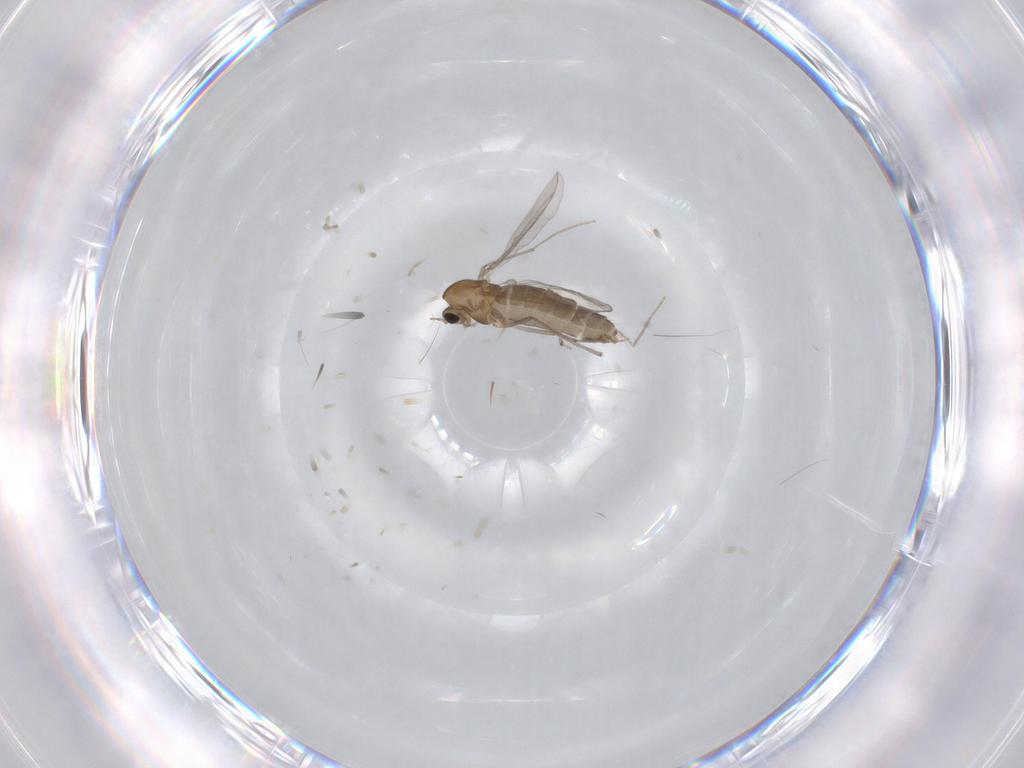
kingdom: Animalia
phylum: Arthropoda
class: Insecta
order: Diptera
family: Chironomidae
